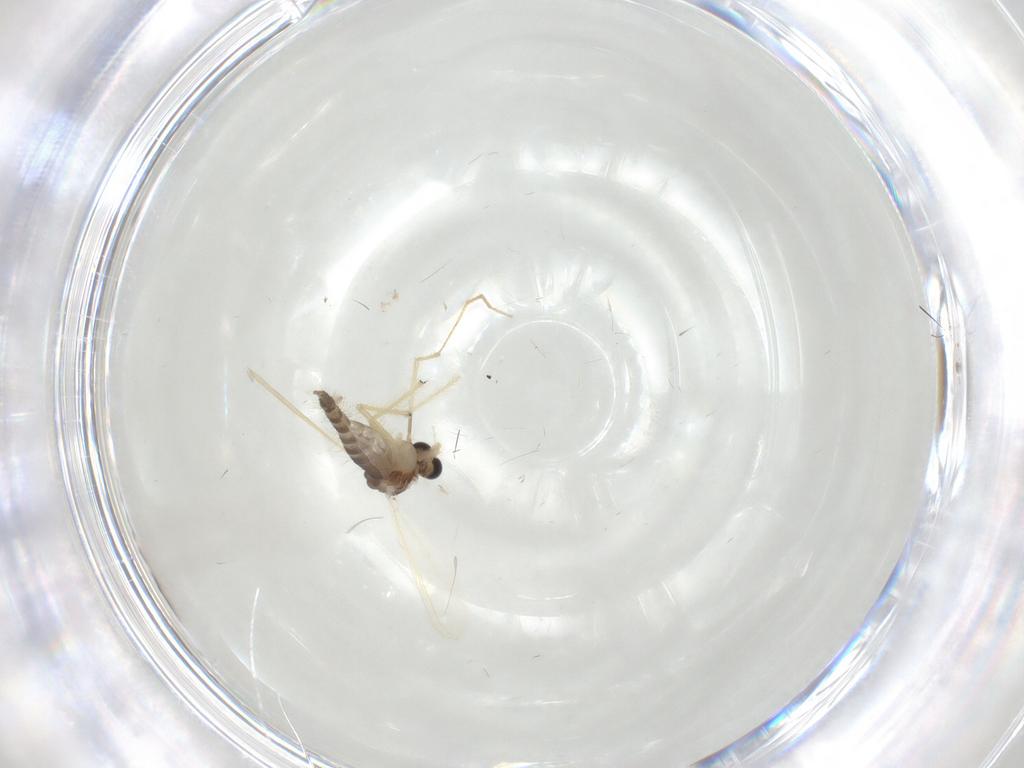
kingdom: Animalia
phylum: Arthropoda
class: Insecta
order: Diptera
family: Chironomidae
